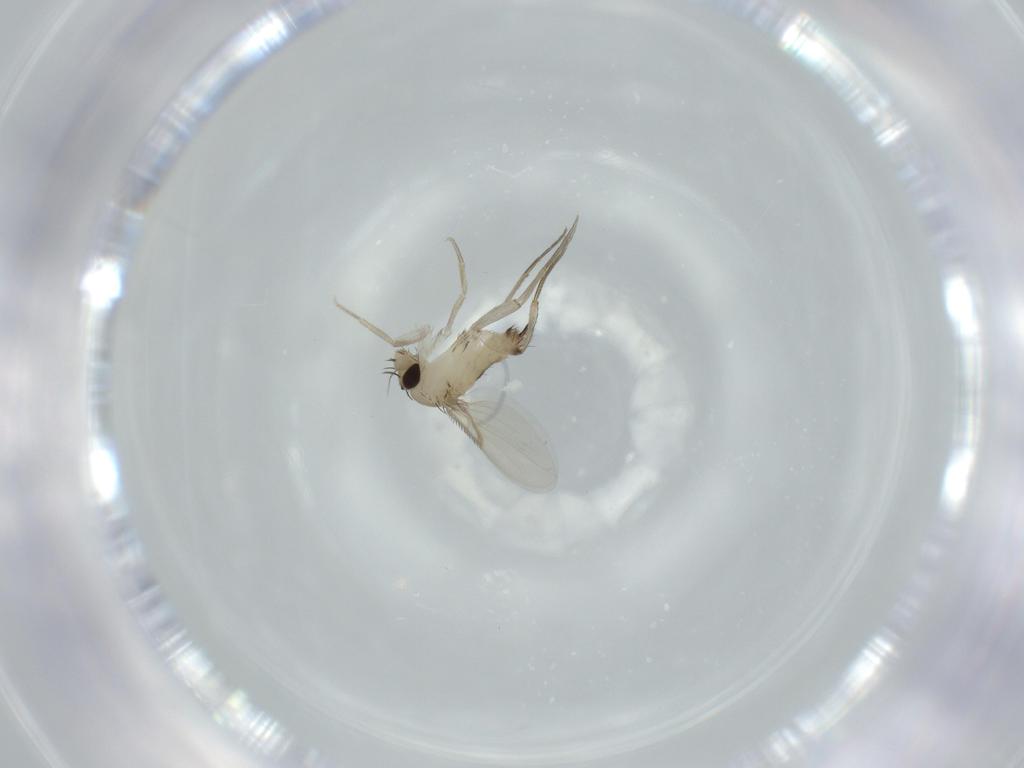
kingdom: Animalia
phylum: Arthropoda
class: Insecta
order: Diptera
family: Phoridae
